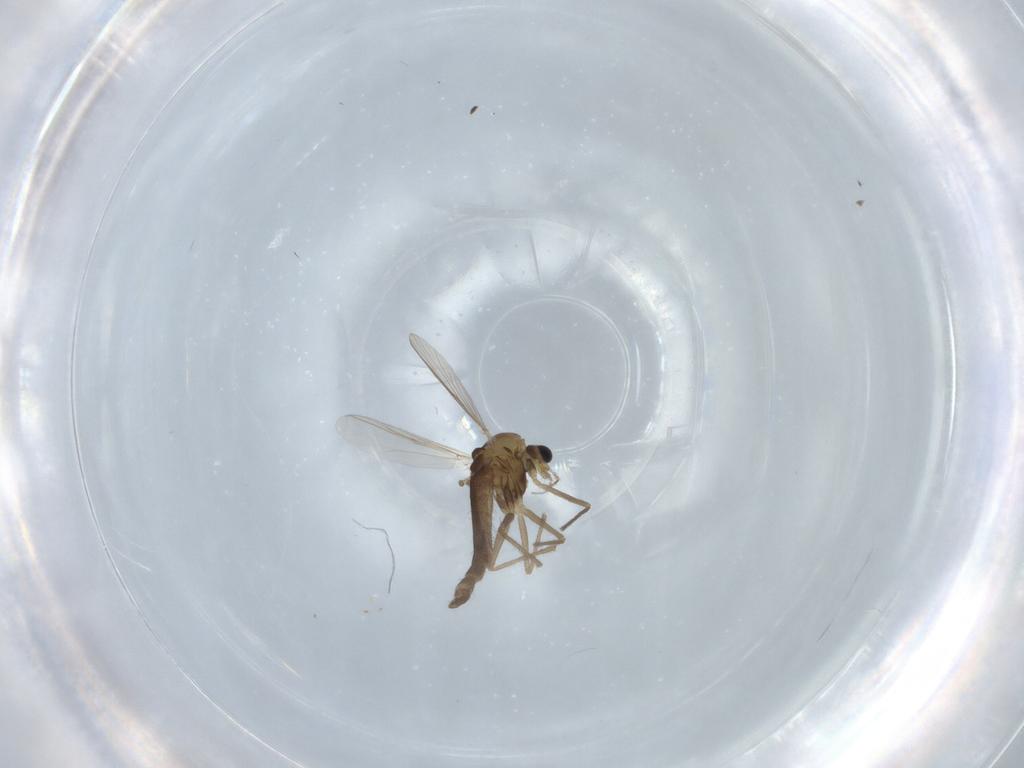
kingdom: Animalia
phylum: Arthropoda
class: Insecta
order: Diptera
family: Chironomidae
